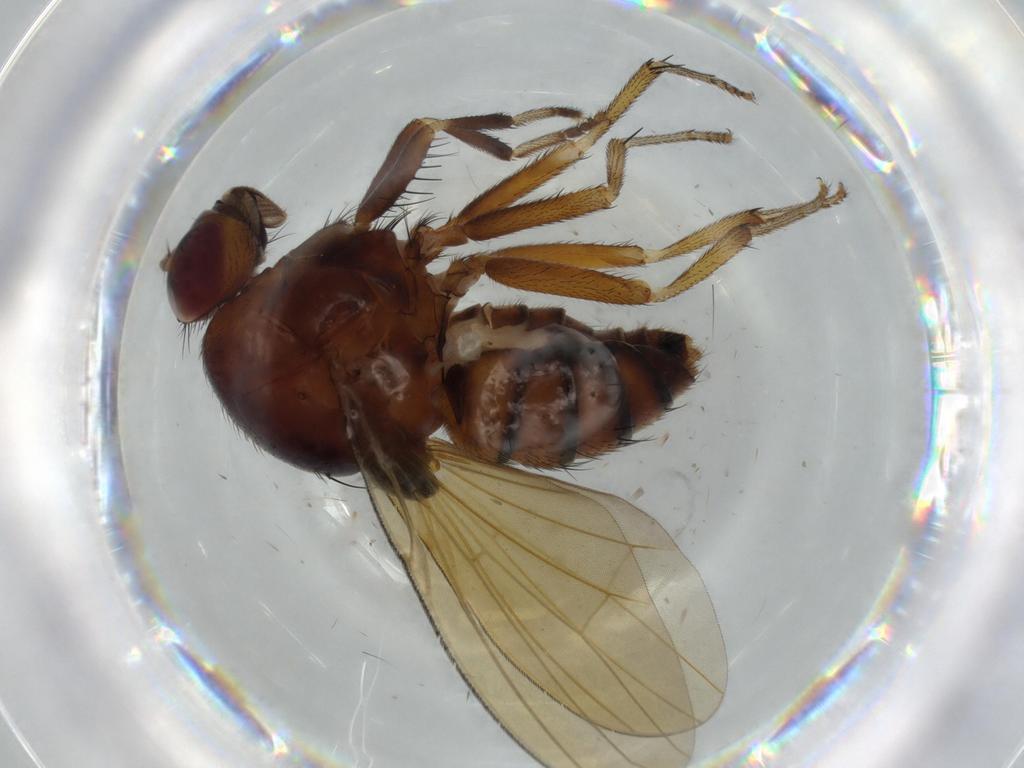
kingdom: Animalia
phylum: Arthropoda
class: Insecta
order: Diptera
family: Lauxaniidae
